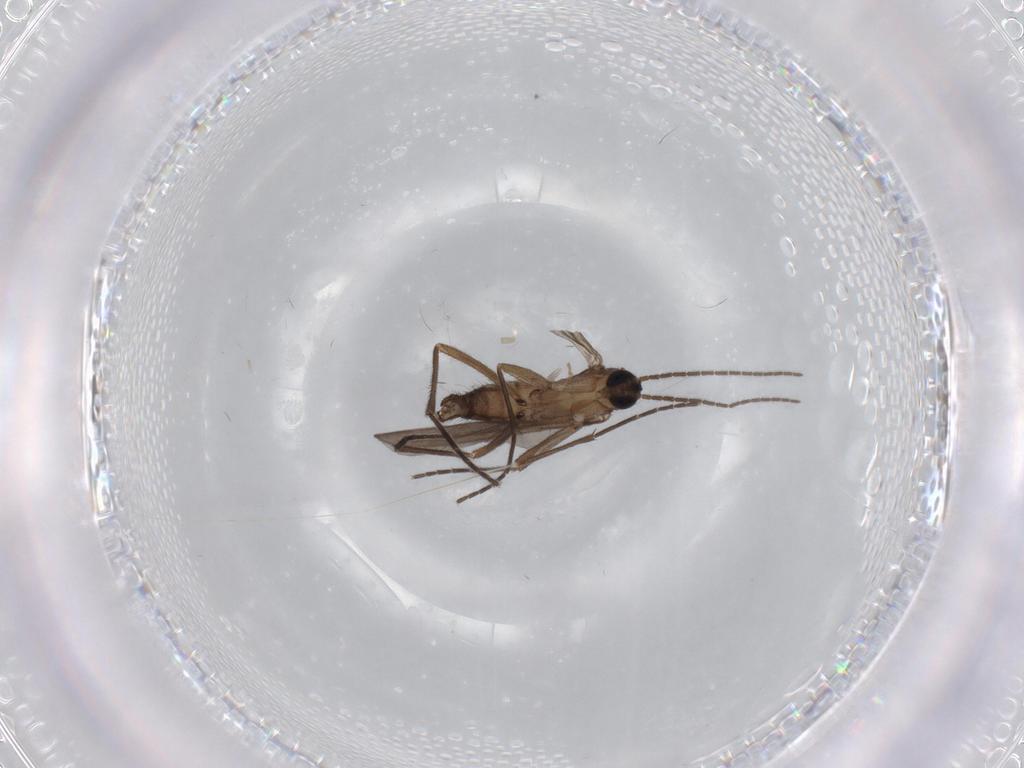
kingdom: Animalia
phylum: Arthropoda
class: Insecta
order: Diptera
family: Sciaridae
